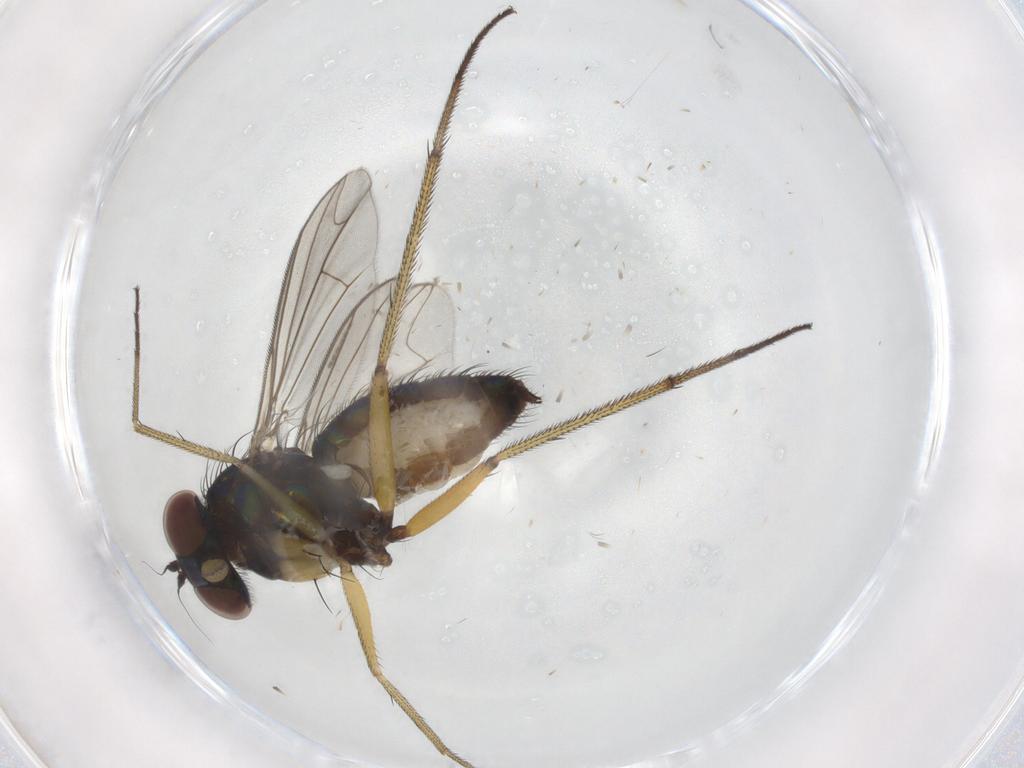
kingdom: Animalia
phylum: Arthropoda
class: Insecta
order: Diptera
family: Dolichopodidae
